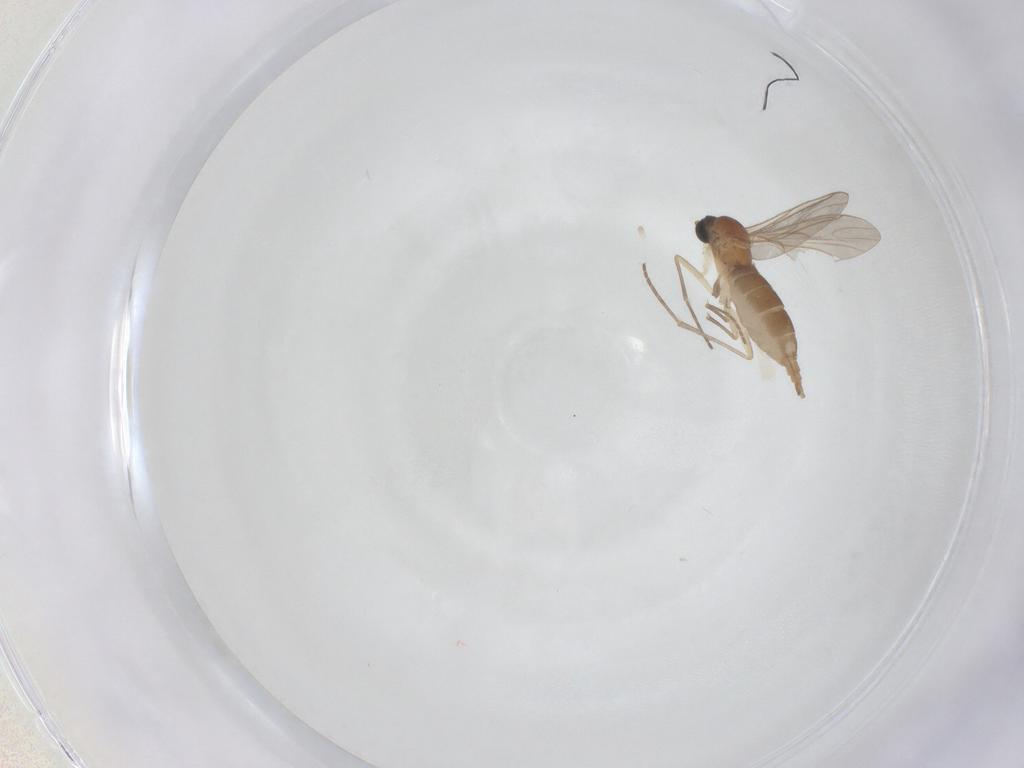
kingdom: Animalia
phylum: Arthropoda
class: Insecta
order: Diptera
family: Sciaridae
